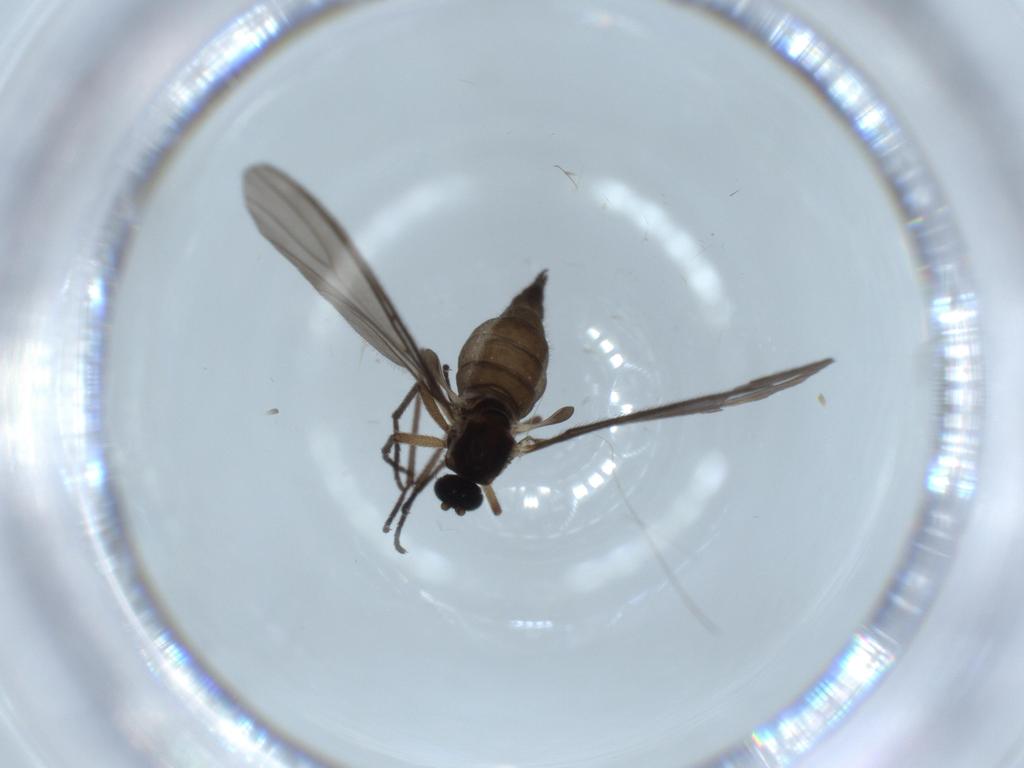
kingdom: Animalia
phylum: Arthropoda
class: Insecta
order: Diptera
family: Sciaridae
